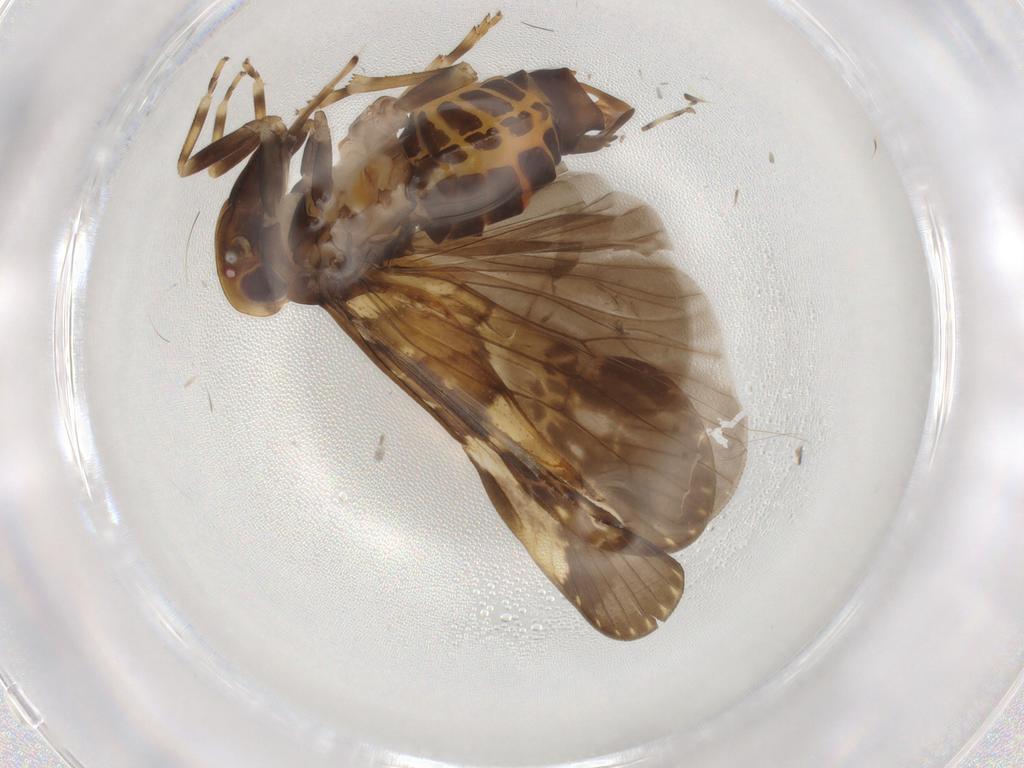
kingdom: Animalia
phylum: Arthropoda
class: Insecta
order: Hemiptera
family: Cixiidae
